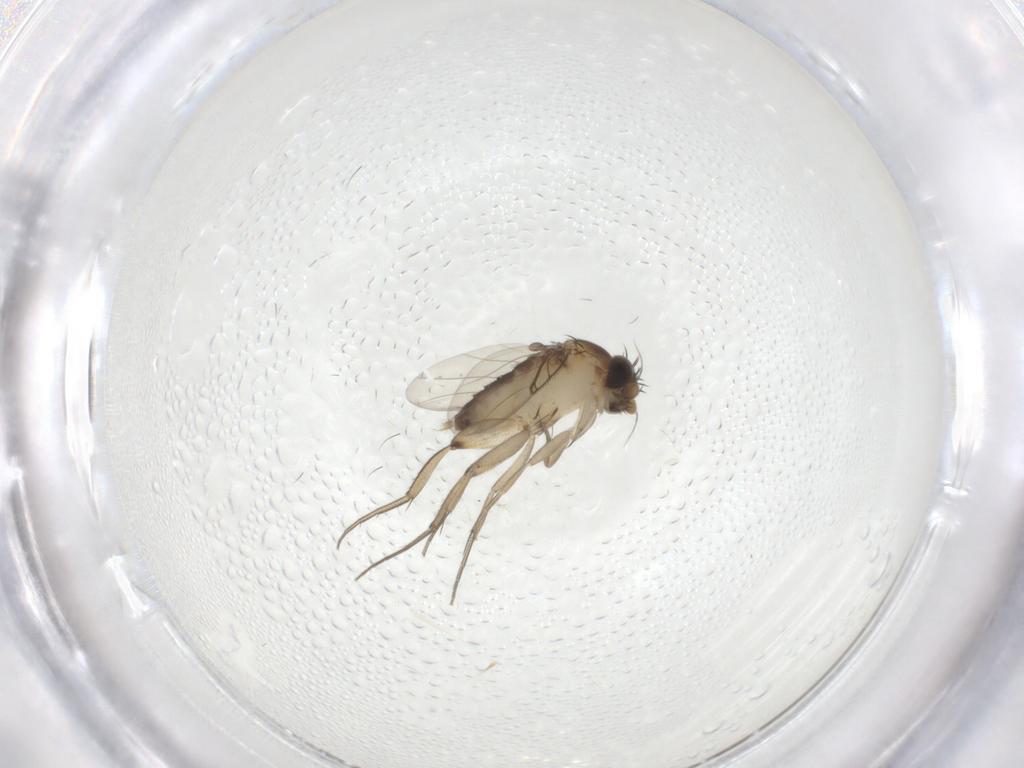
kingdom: Animalia
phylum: Arthropoda
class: Insecta
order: Diptera
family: Phoridae
